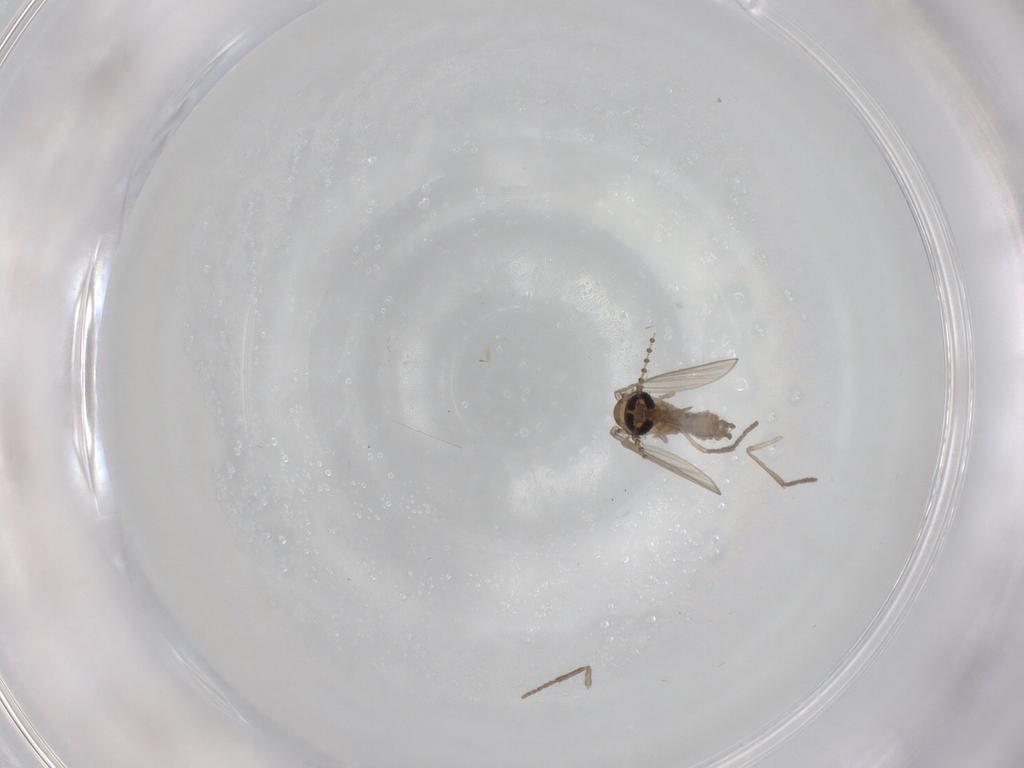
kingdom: Animalia
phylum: Arthropoda
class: Insecta
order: Diptera
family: Psychodidae
